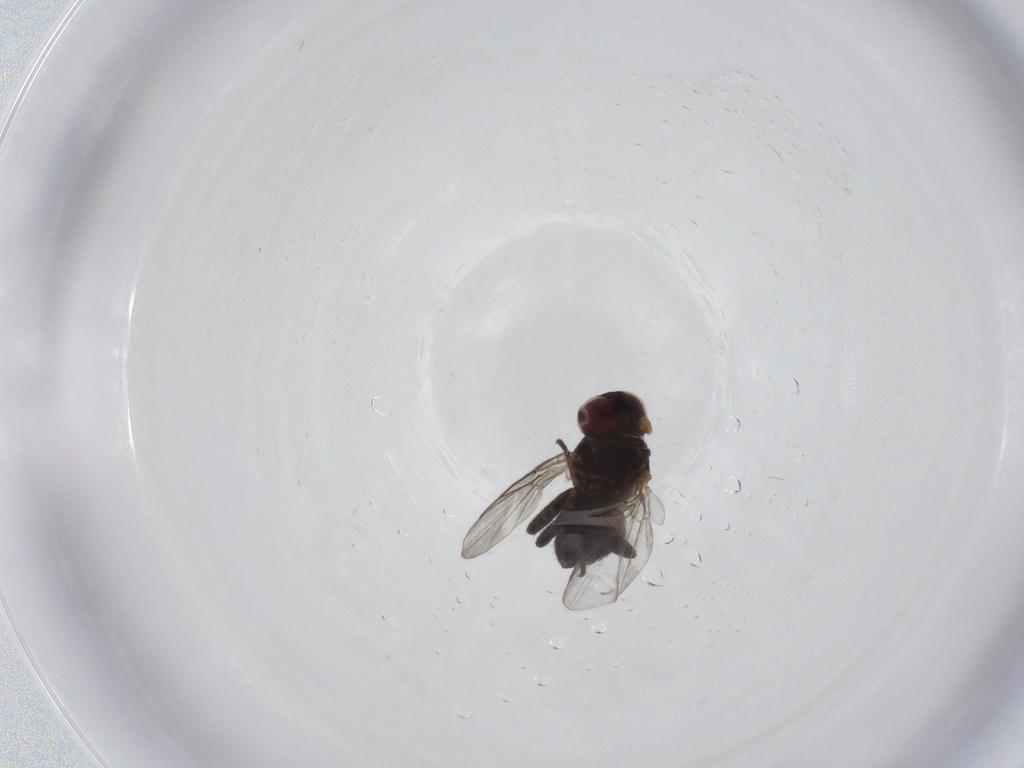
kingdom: Animalia
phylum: Arthropoda
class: Insecta
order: Diptera
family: Agromyzidae
